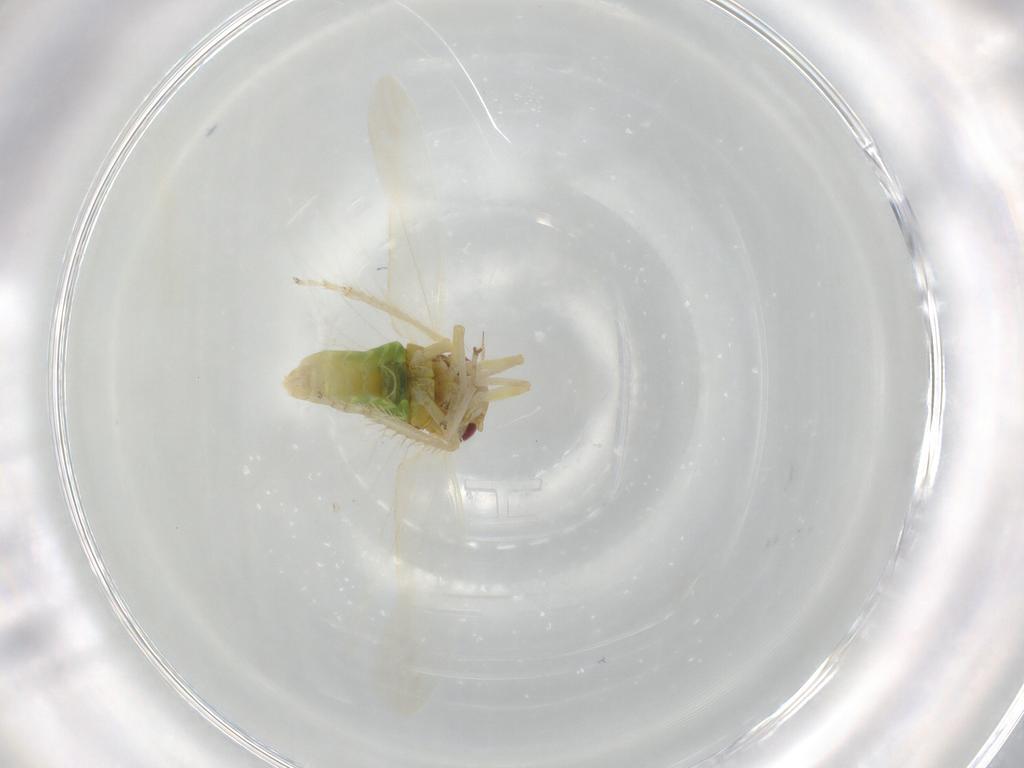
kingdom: Animalia
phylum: Arthropoda
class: Insecta
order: Hemiptera
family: Cicadellidae
